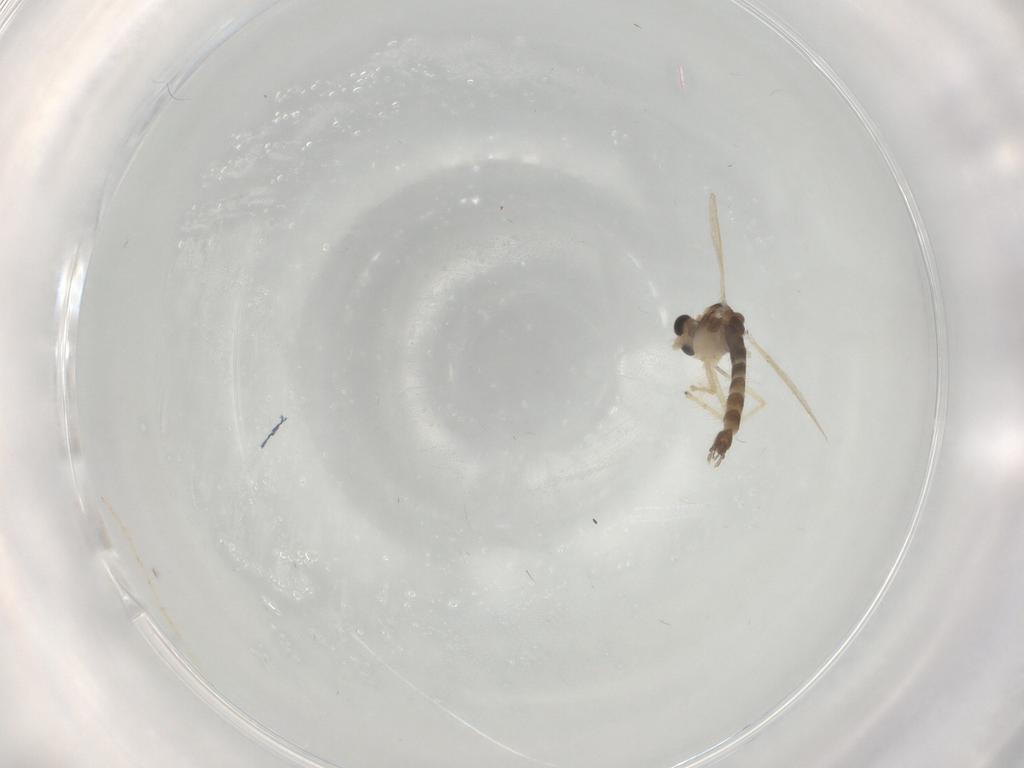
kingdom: Animalia
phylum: Arthropoda
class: Insecta
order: Diptera
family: Chironomidae
